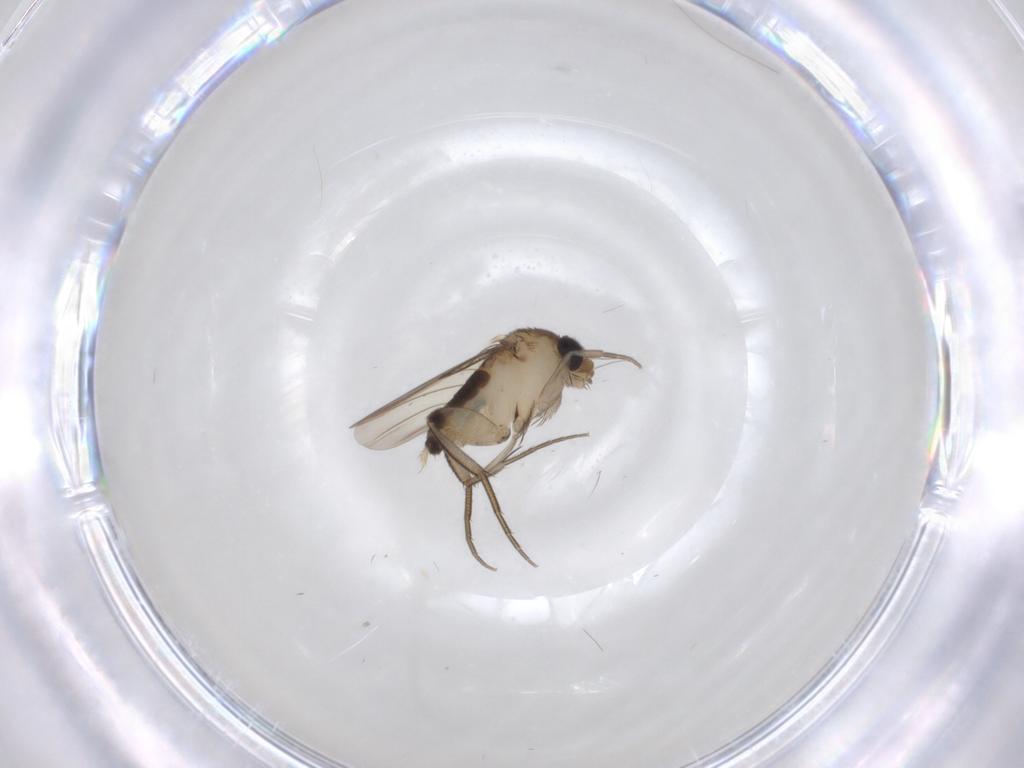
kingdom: Animalia
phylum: Arthropoda
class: Insecta
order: Diptera
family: Phoridae
